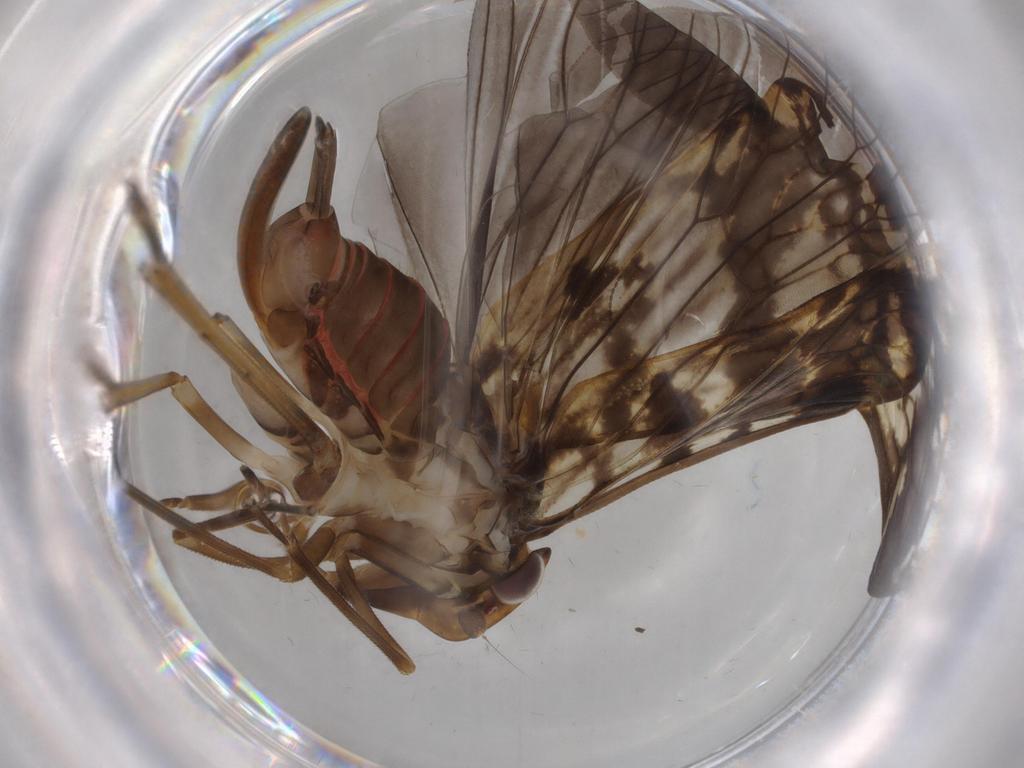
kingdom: Animalia
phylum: Arthropoda
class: Insecta
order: Hemiptera
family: Cixiidae
